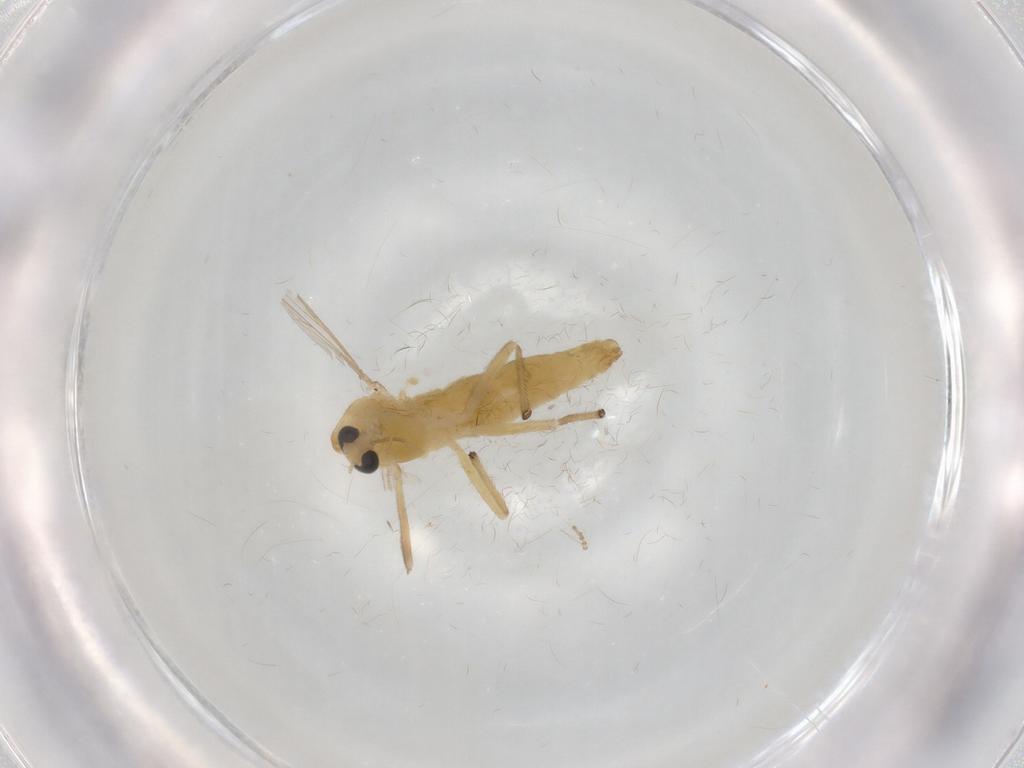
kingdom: Animalia
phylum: Arthropoda
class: Insecta
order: Diptera
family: Chironomidae
